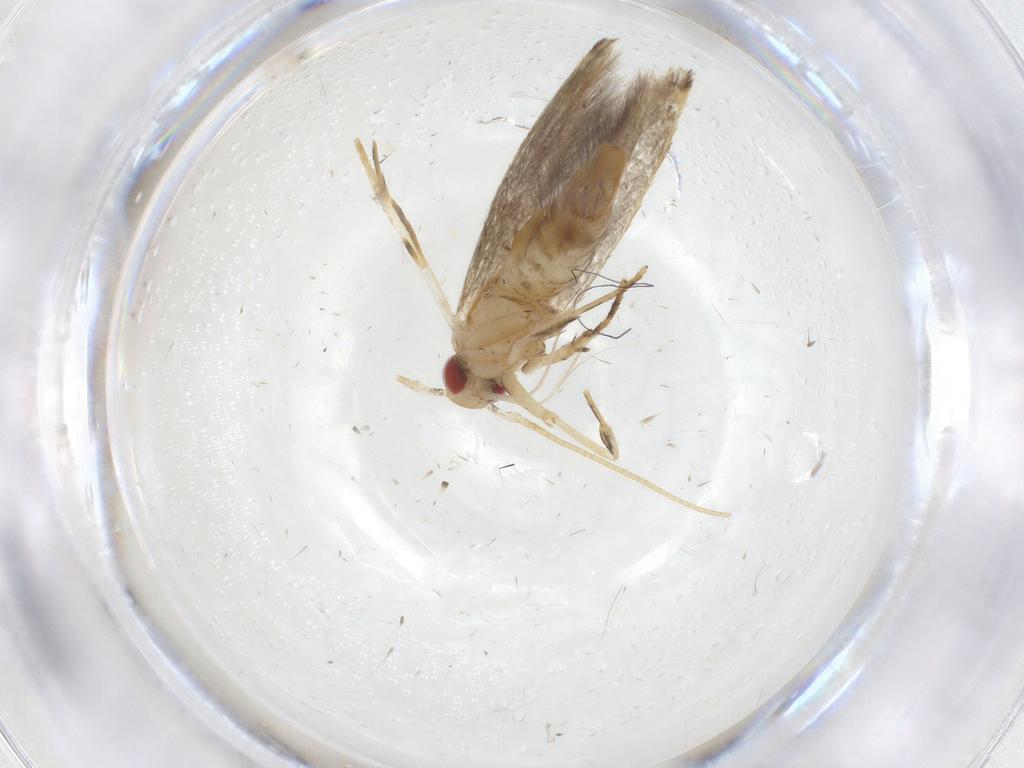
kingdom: Animalia
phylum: Arthropoda
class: Insecta
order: Lepidoptera
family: Cosmopterigidae
